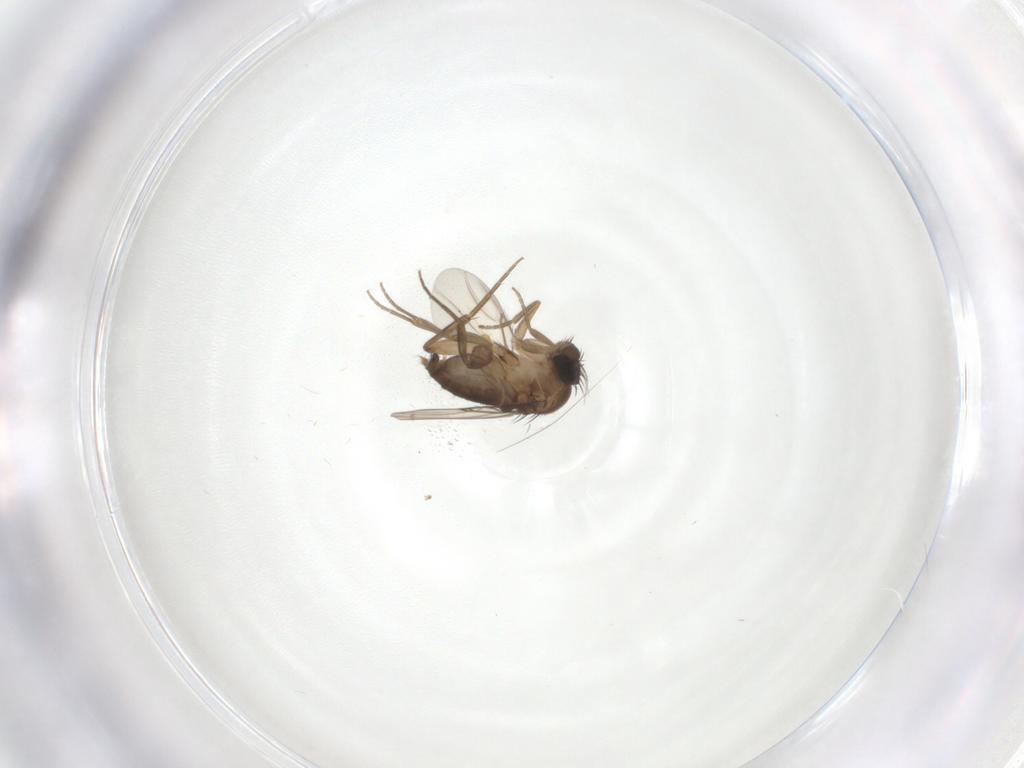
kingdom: Animalia
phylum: Arthropoda
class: Insecta
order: Diptera
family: Phoridae
